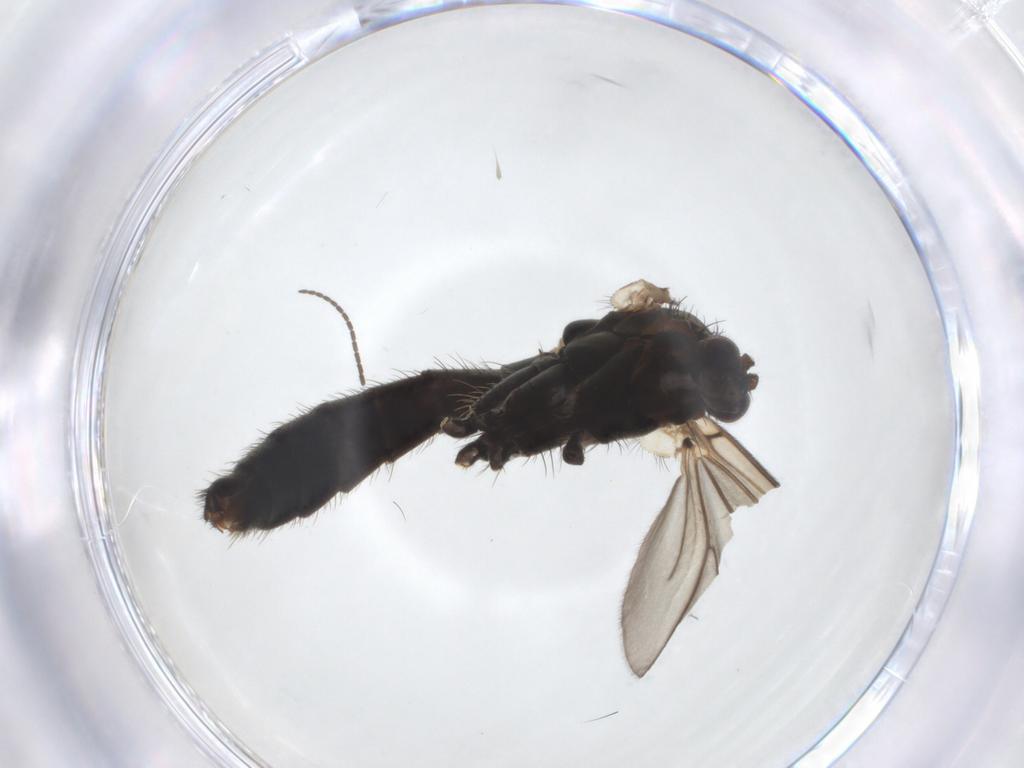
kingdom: Animalia
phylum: Arthropoda
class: Insecta
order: Diptera
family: Mycetophilidae
